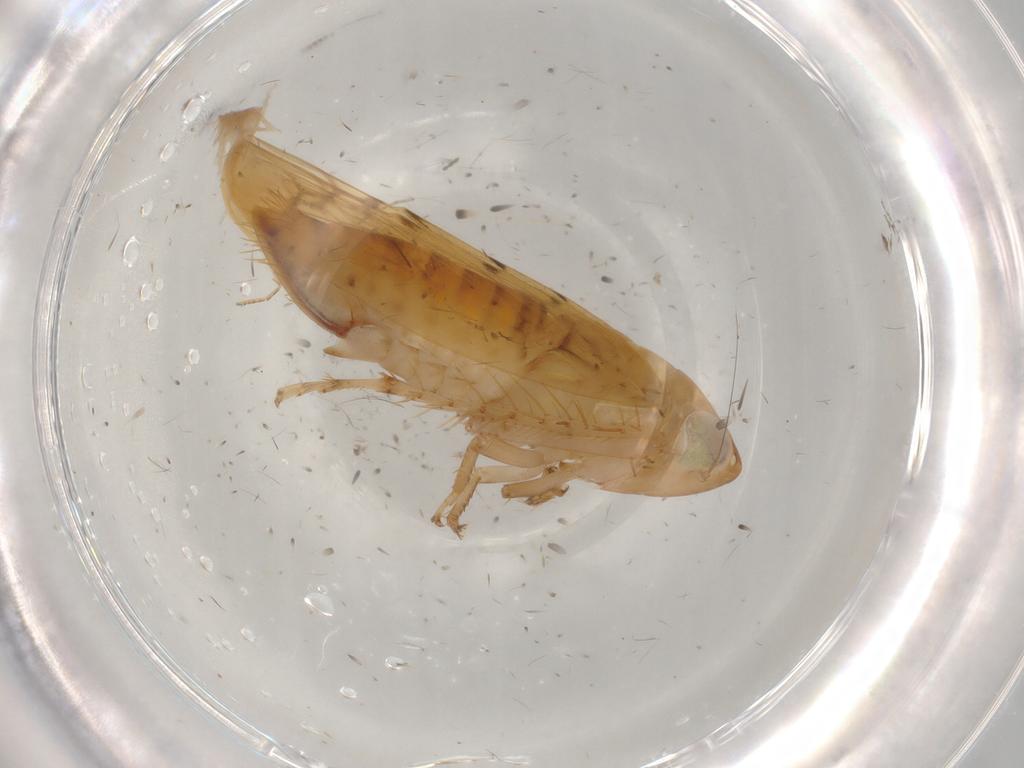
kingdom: Animalia
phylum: Arthropoda
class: Insecta
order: Hemiptera
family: Cicadellidae
